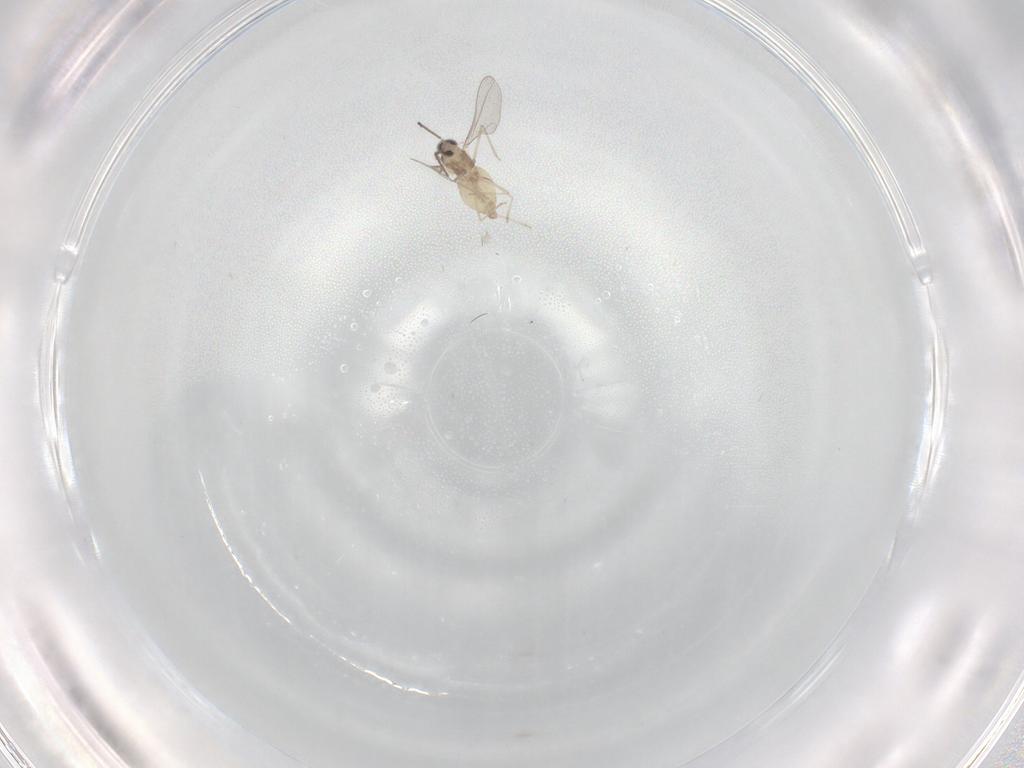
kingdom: Animalia
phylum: Arthropoda
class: Insecta
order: Diptera
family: Cecidomyiidae
